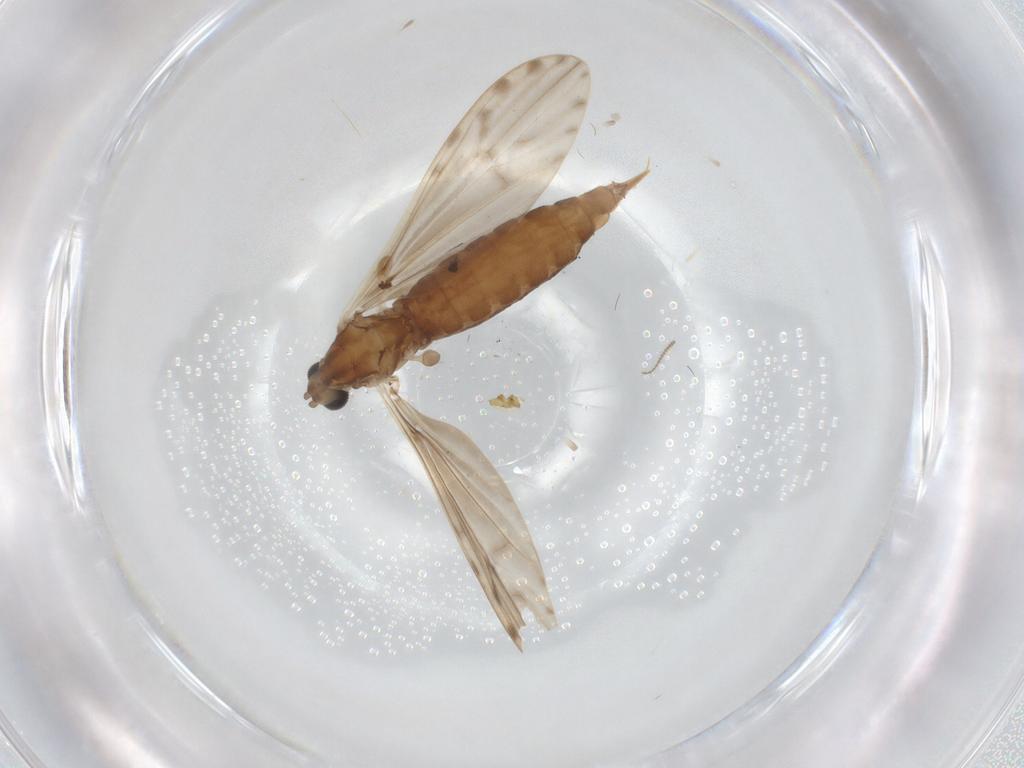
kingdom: Animalia
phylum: Arthropoda
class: Insecta
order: Diptera
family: Limoniidae
